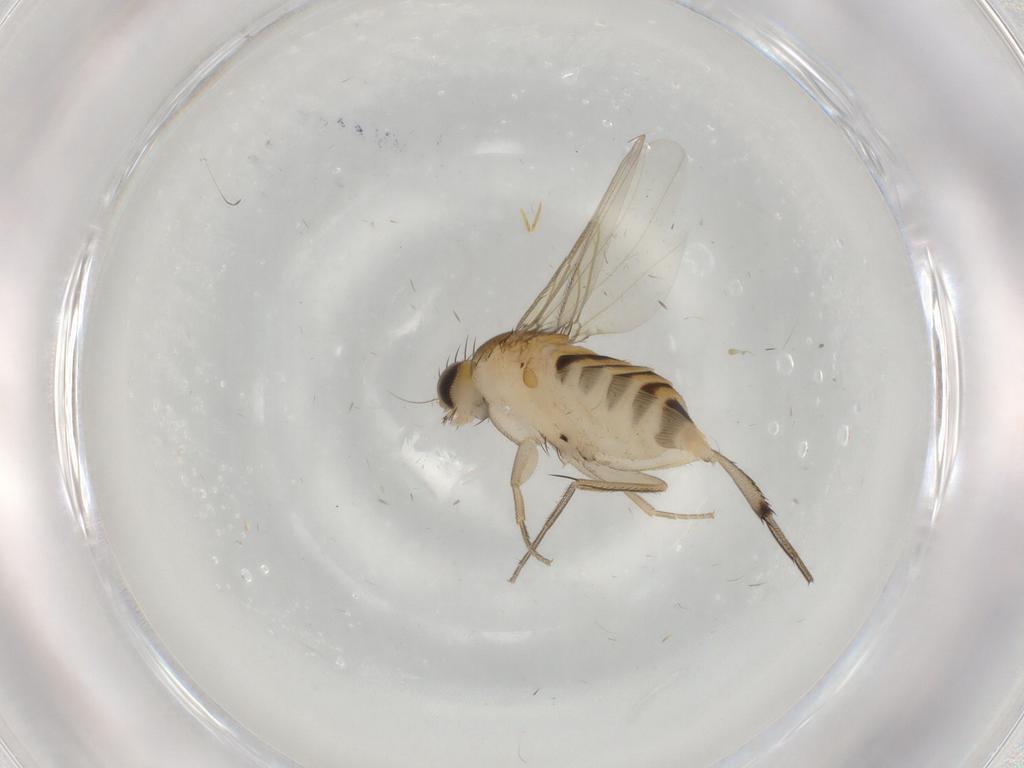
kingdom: Animalia
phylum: Arthropoda
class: Insecta
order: Diptera
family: Phoridae
